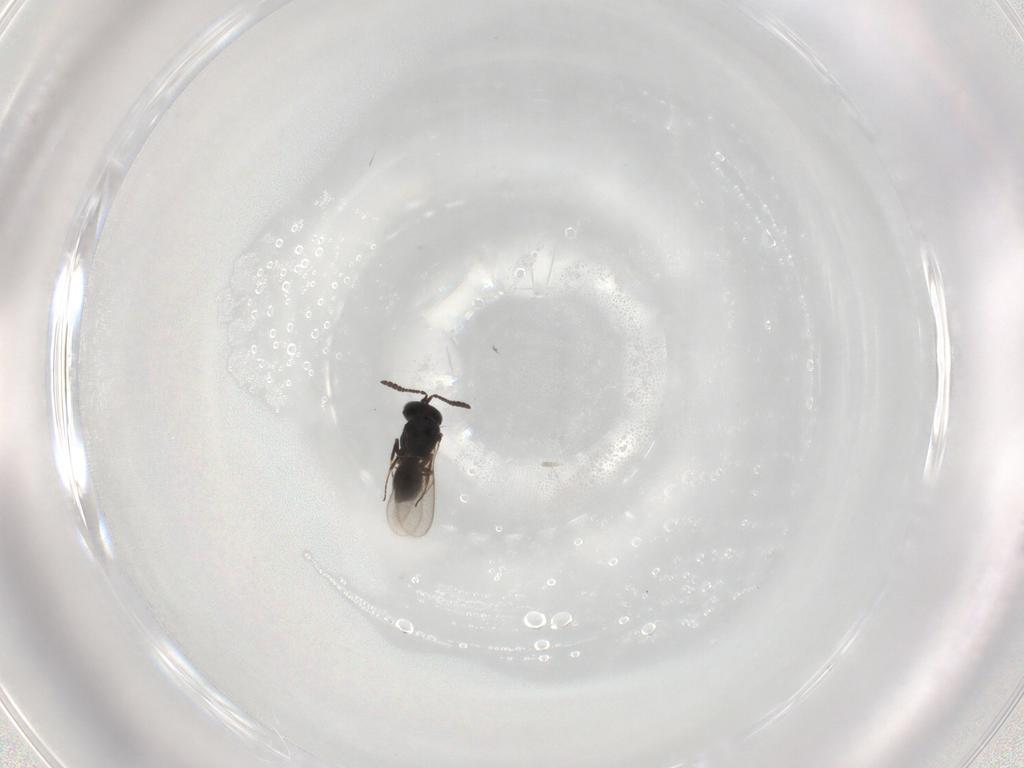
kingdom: Animalia
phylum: Arthropoda
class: Insecta
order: Hymenoptera
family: Scelionidae
